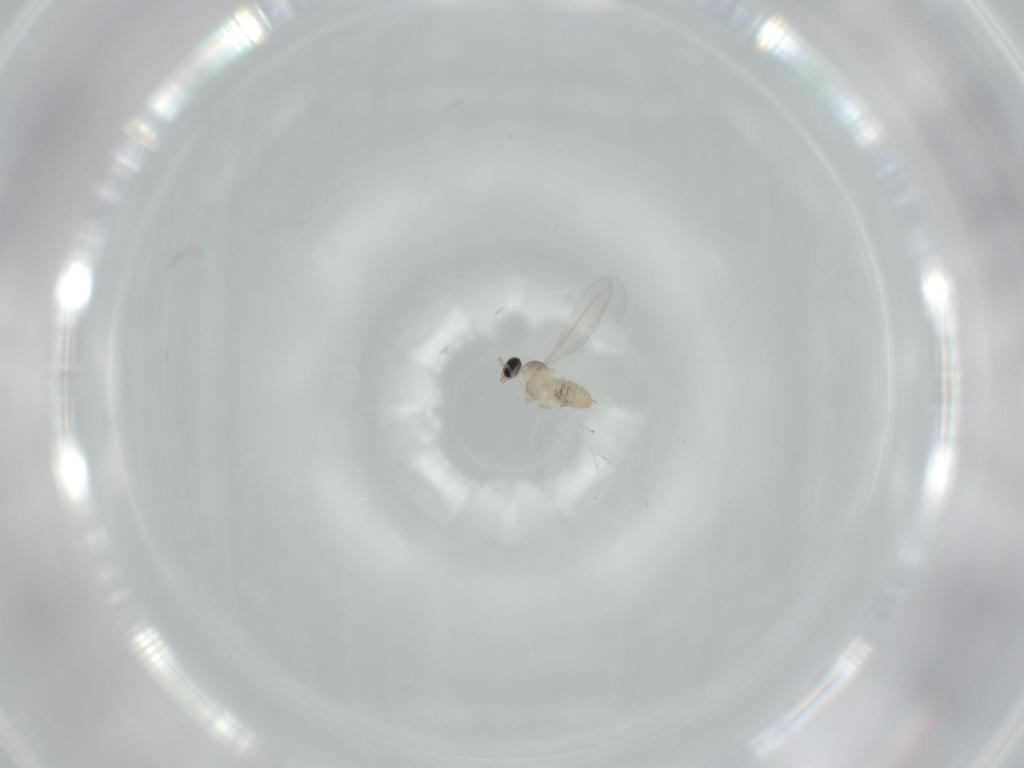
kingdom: Animalia
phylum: Arthropoda
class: Insecta
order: Diptera
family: Cecidomyiidae
